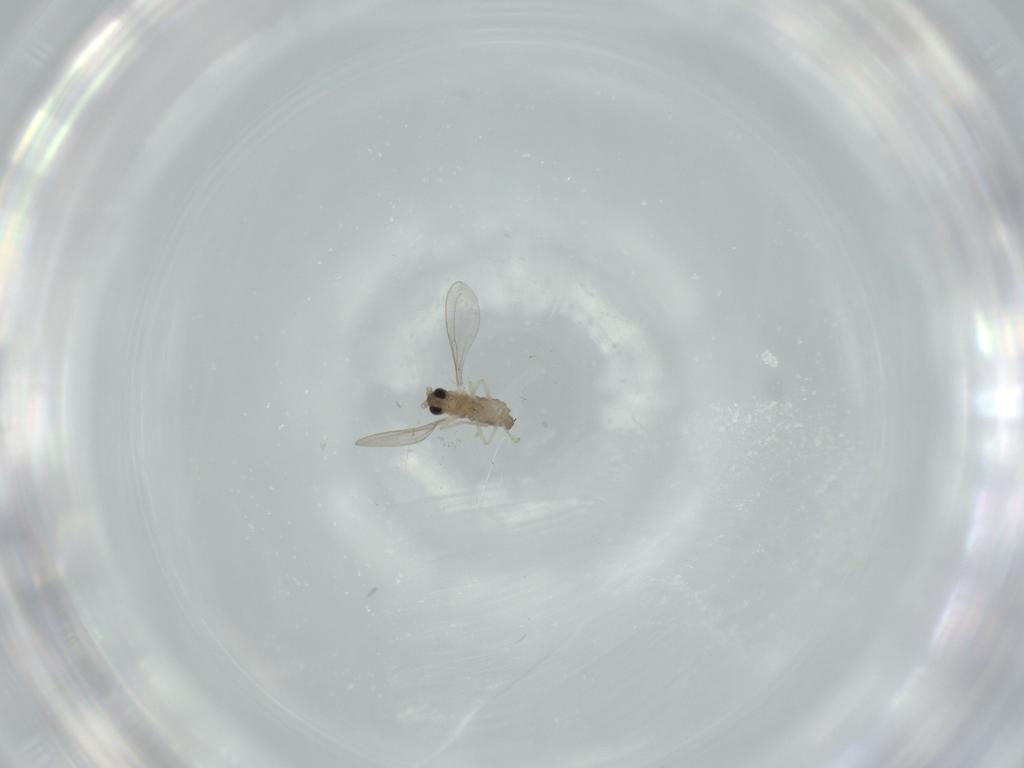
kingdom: Animalia
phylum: Arthropoda
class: Insecta
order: Diptera
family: Cecidomyiidae
